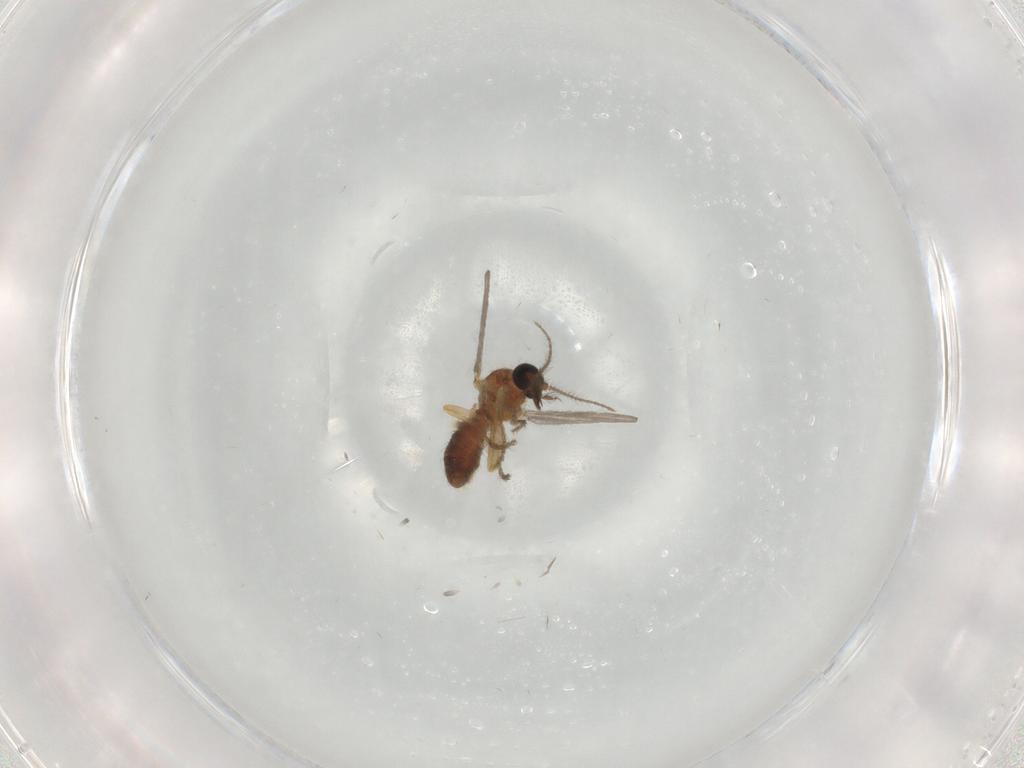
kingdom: Animalia
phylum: Arthropoda
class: Insecta
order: Diptera
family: Ceratopogonidae
